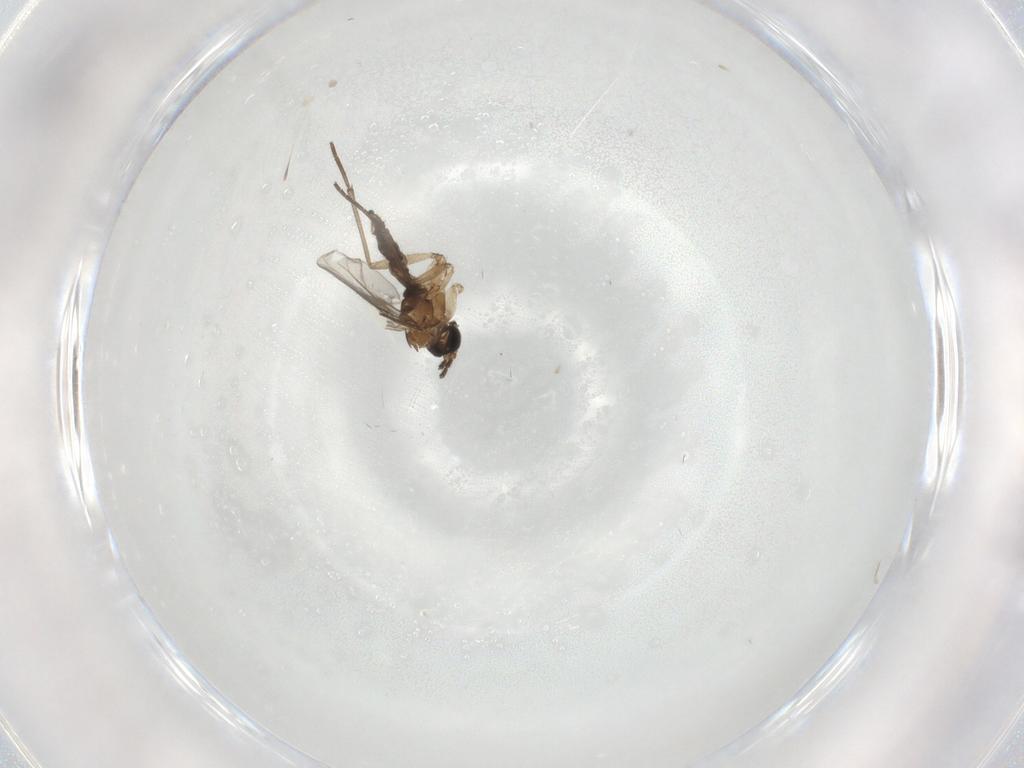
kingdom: Animalia
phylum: Arthropoda
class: Insecta
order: Diptera
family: Phoridae
